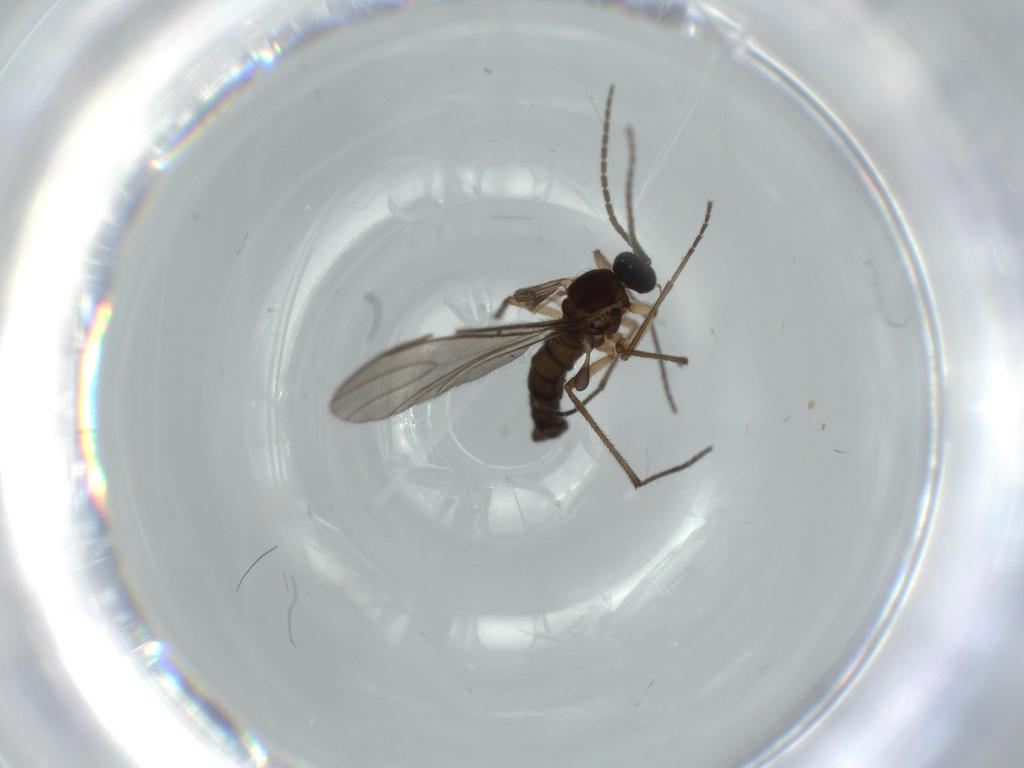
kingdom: Animalia
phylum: Arthropoda
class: Insecta
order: Diptera
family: Sciaridae
